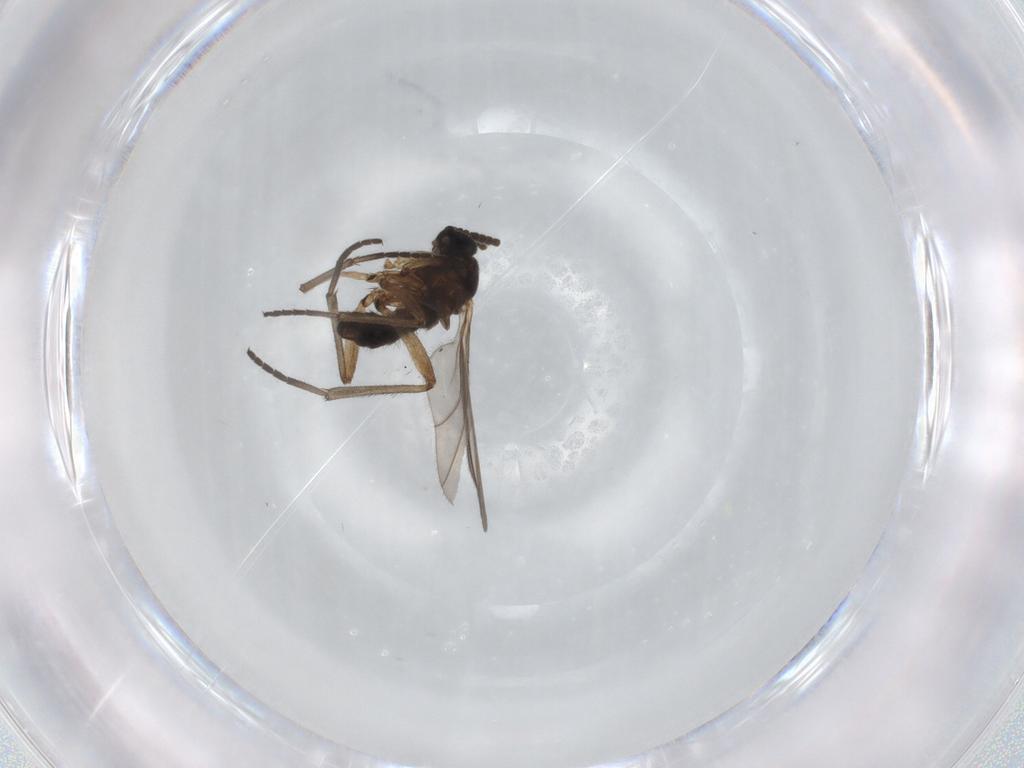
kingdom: Animalia
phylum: Arthropoda
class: Insecta
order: Diptera
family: Sciaridae
